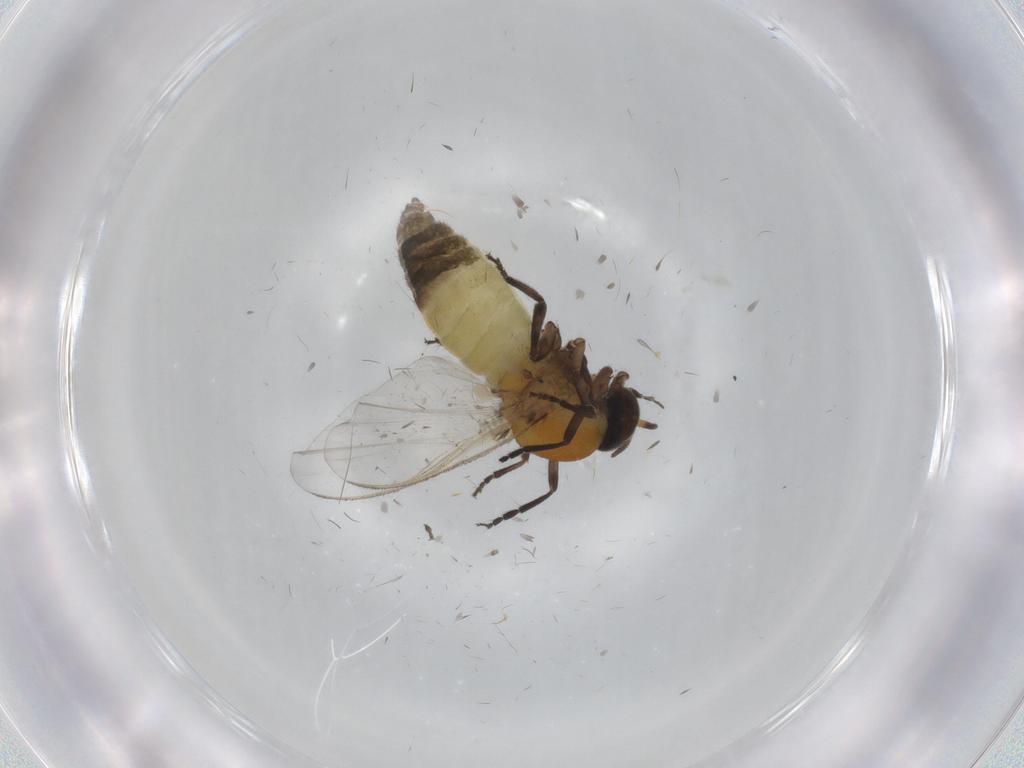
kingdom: Animalia
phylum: Arthropoda
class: Insecta
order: Diptera
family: Simuliidae
